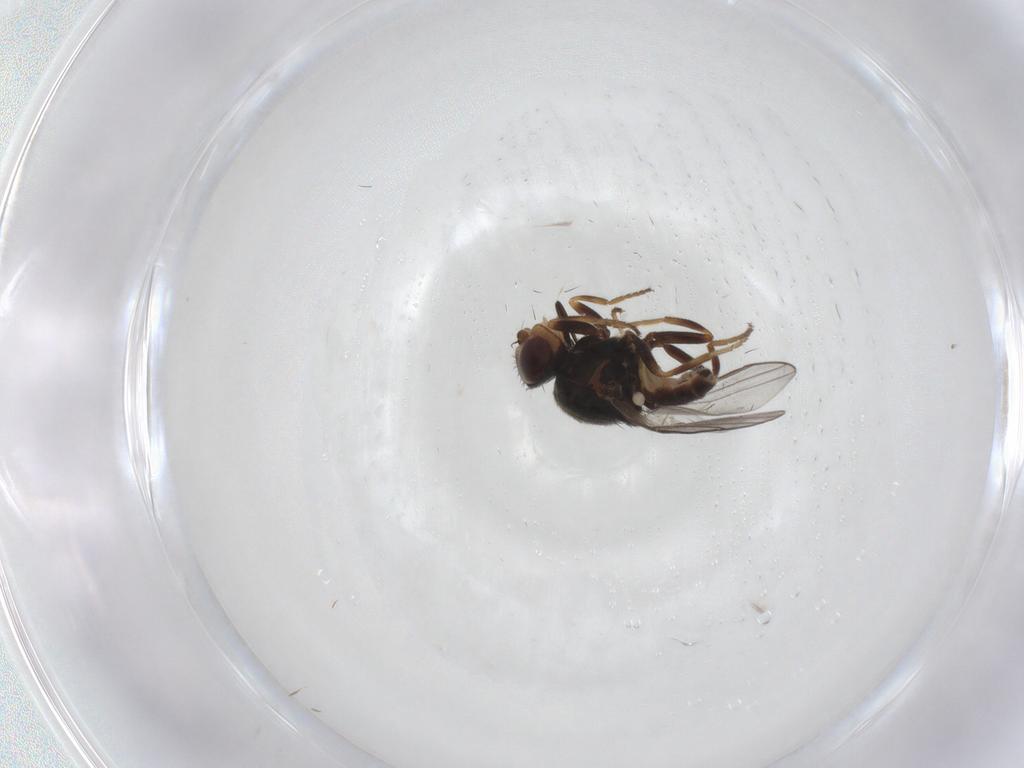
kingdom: Animalia
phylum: Arthropoda
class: Insecta
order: Diptera
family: Chloropidae
